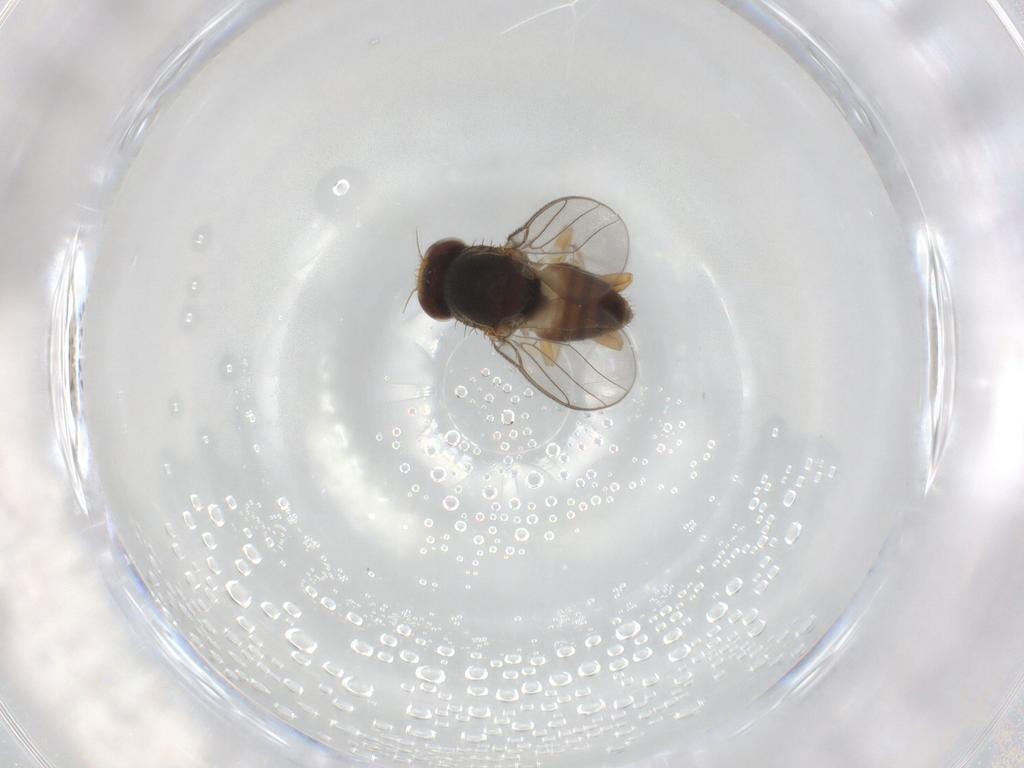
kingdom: Animalia
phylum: Arthropoda
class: Insecta
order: Diptera
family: Chloropidae
